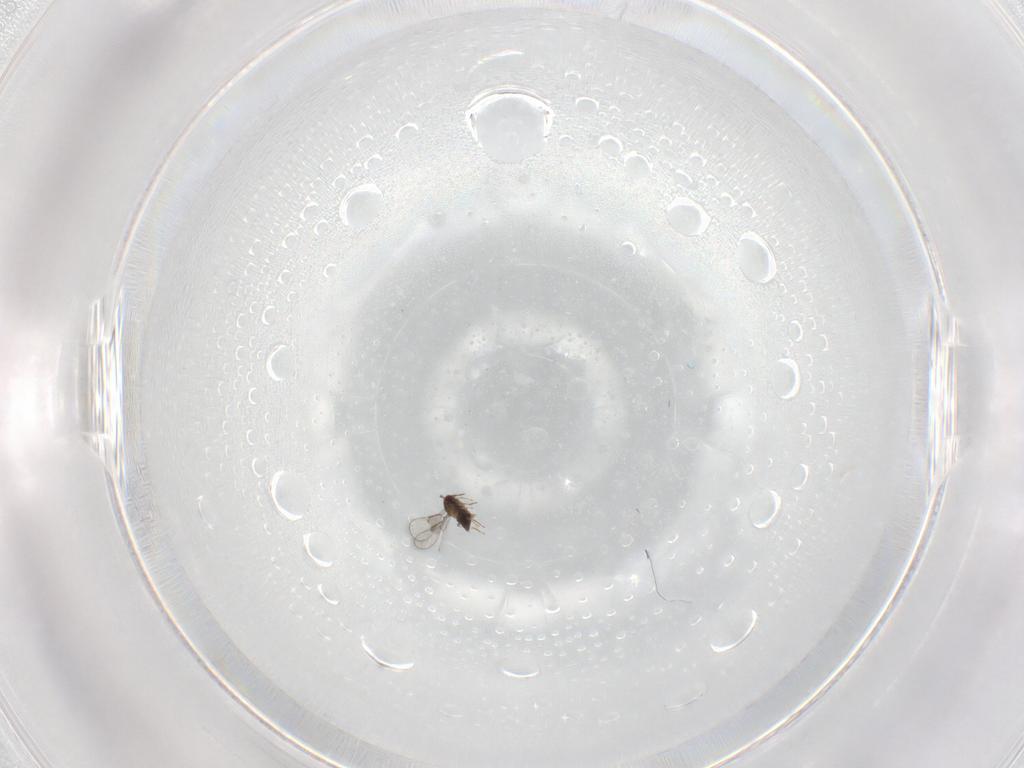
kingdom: Animalia
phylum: Arthropoda
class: Insecta
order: Hymenoptera
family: Trichogrammatidae
